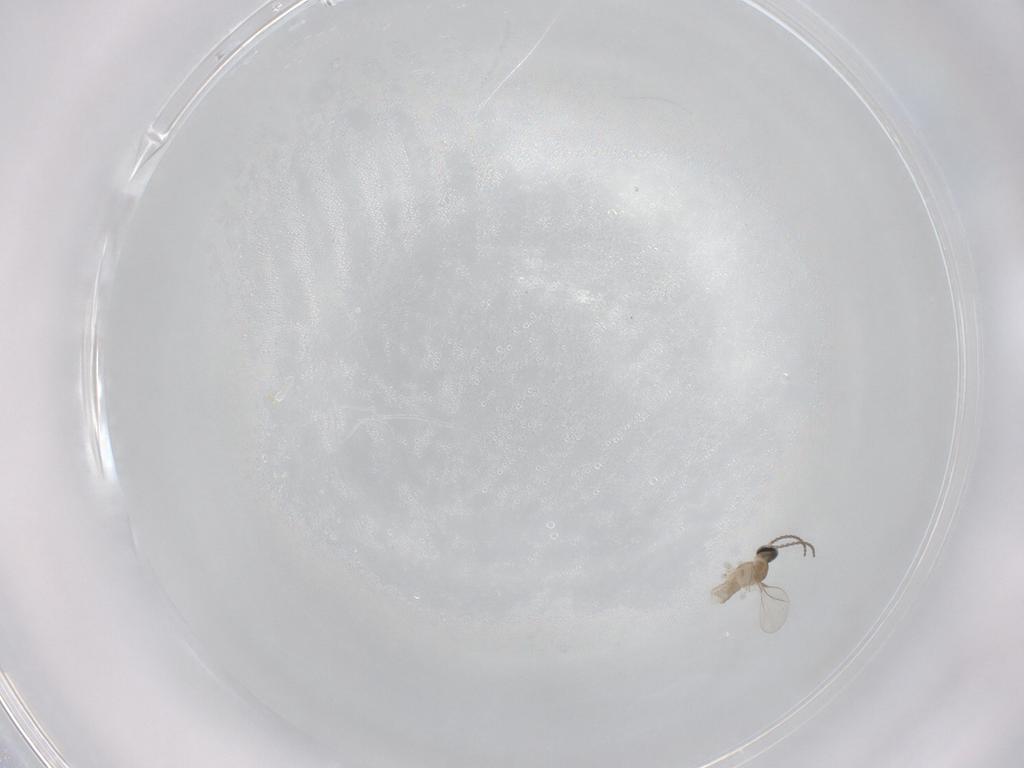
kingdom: Animalia
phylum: Arthropoda
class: Insecta
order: Diptera
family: Cecidomyiidae
